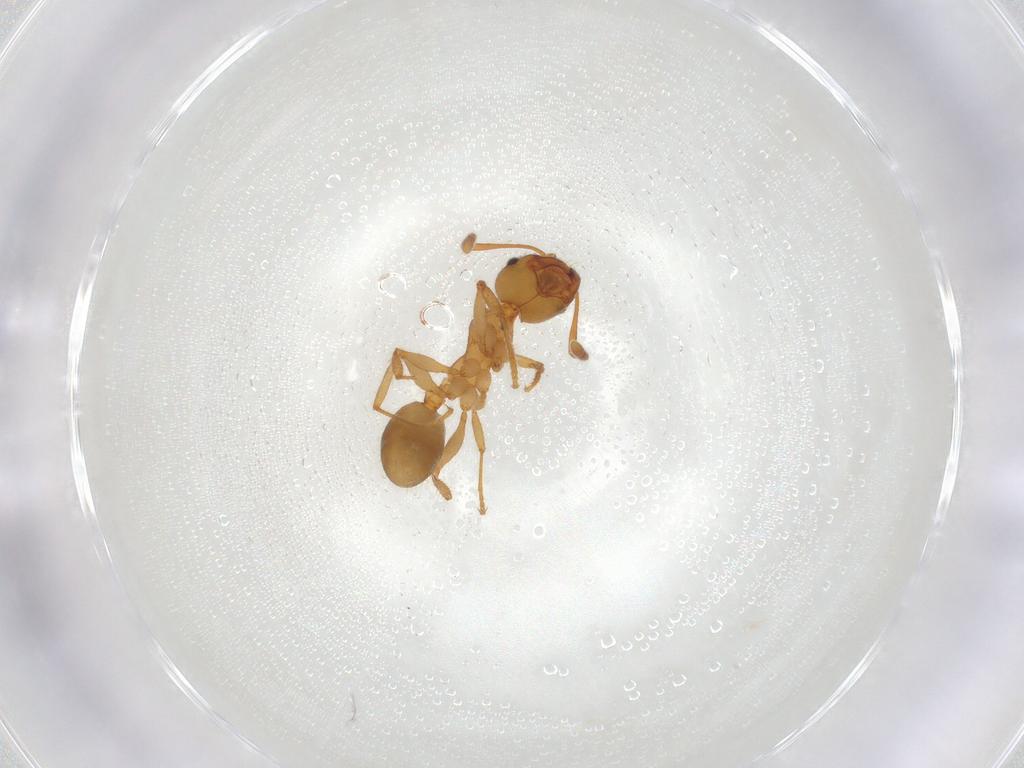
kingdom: Animalia
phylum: Arthropoda
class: Insecta
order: Hymenoptera
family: Formicidae
